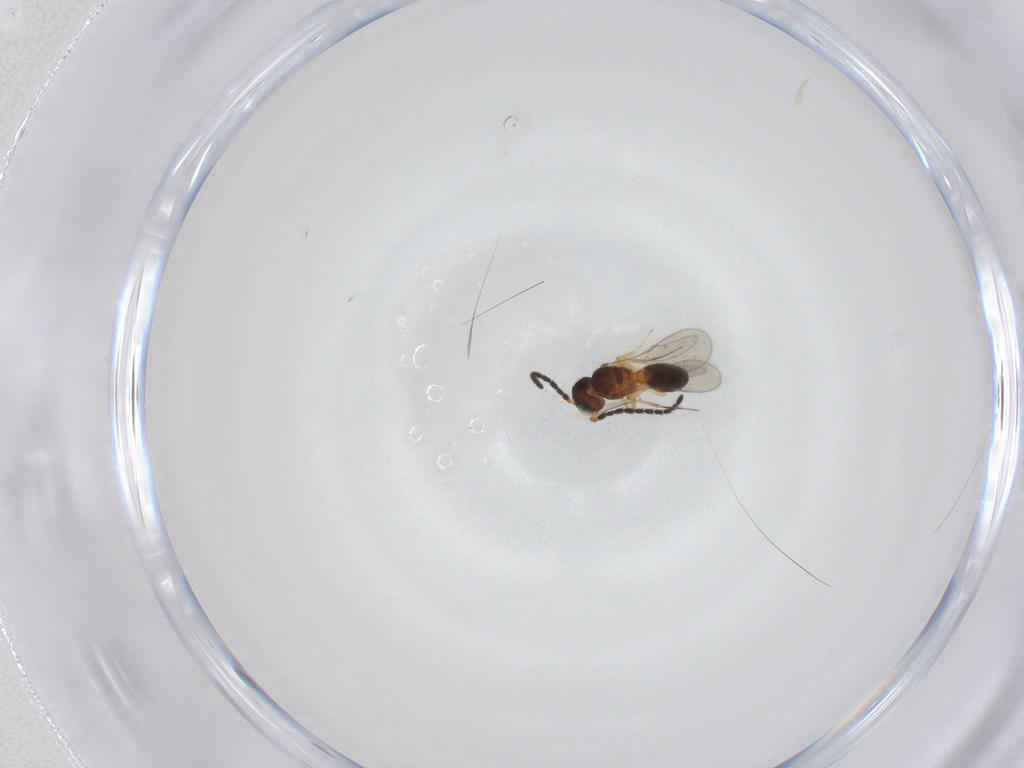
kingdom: Animalia
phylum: Arthropoda
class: Insecta
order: Hymenoptera
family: Scelionidae
